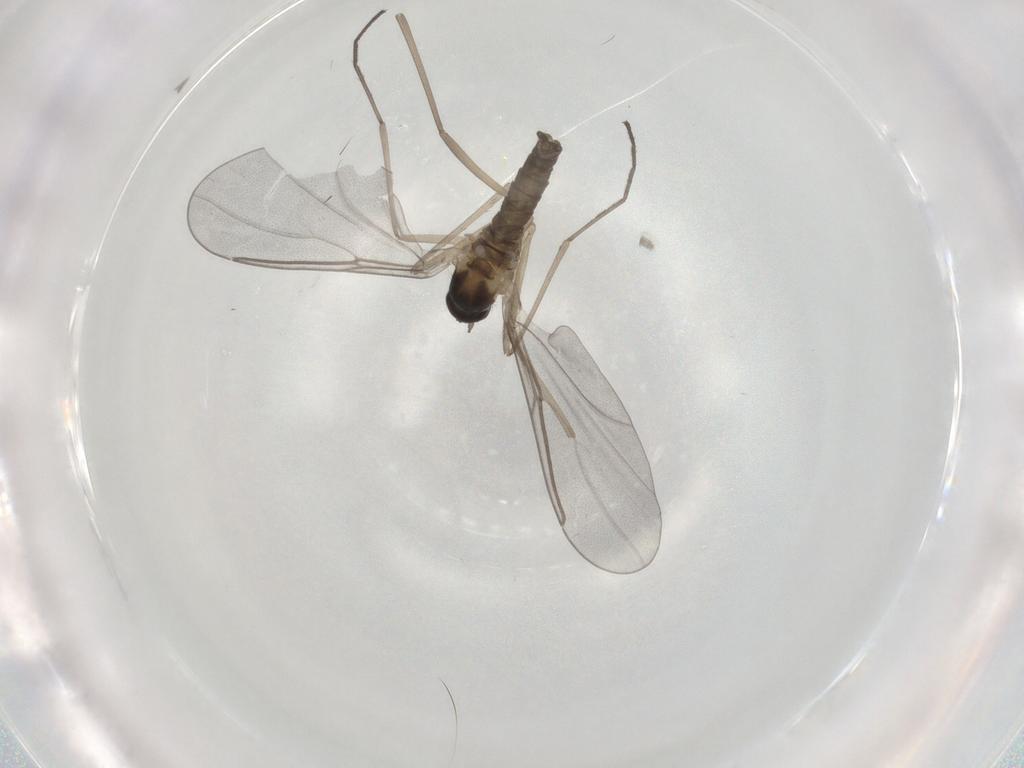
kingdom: Animalia
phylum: Arthropoda
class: Insecta
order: Diptera
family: Cecidomyiidae
